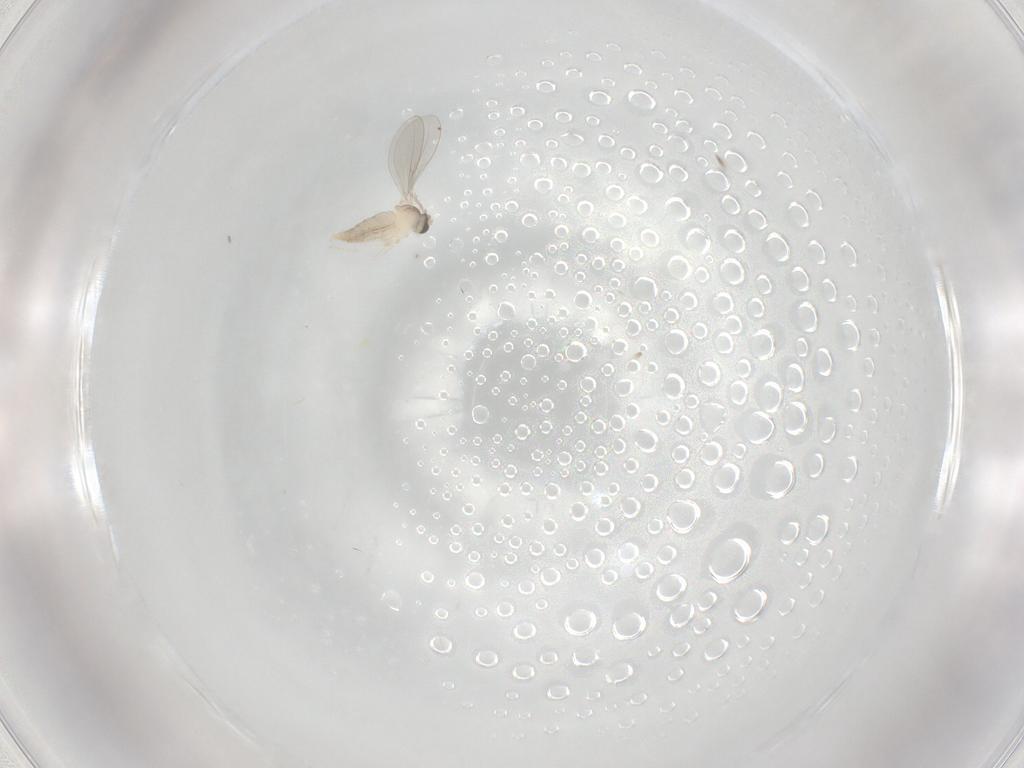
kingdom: Animalia
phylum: Arthropoda
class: Insecta
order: Diptera
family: Cecidomyiidae
